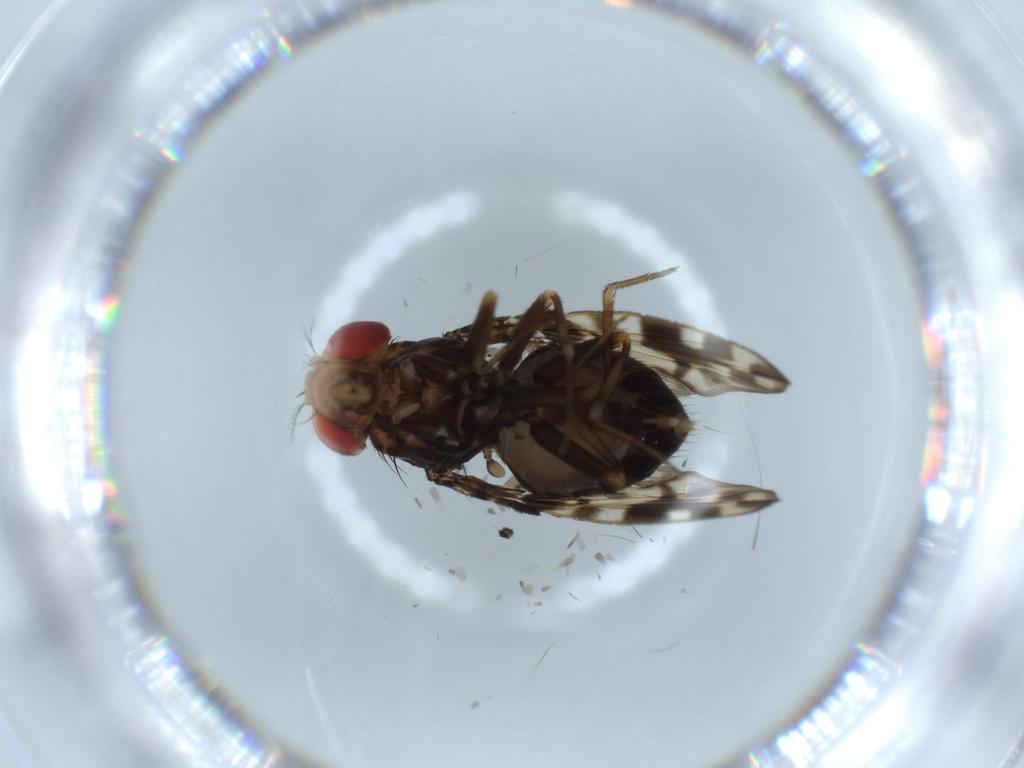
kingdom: Animalia
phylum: Arthropoda
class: Insecta
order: Diptera
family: Drosophilidae
